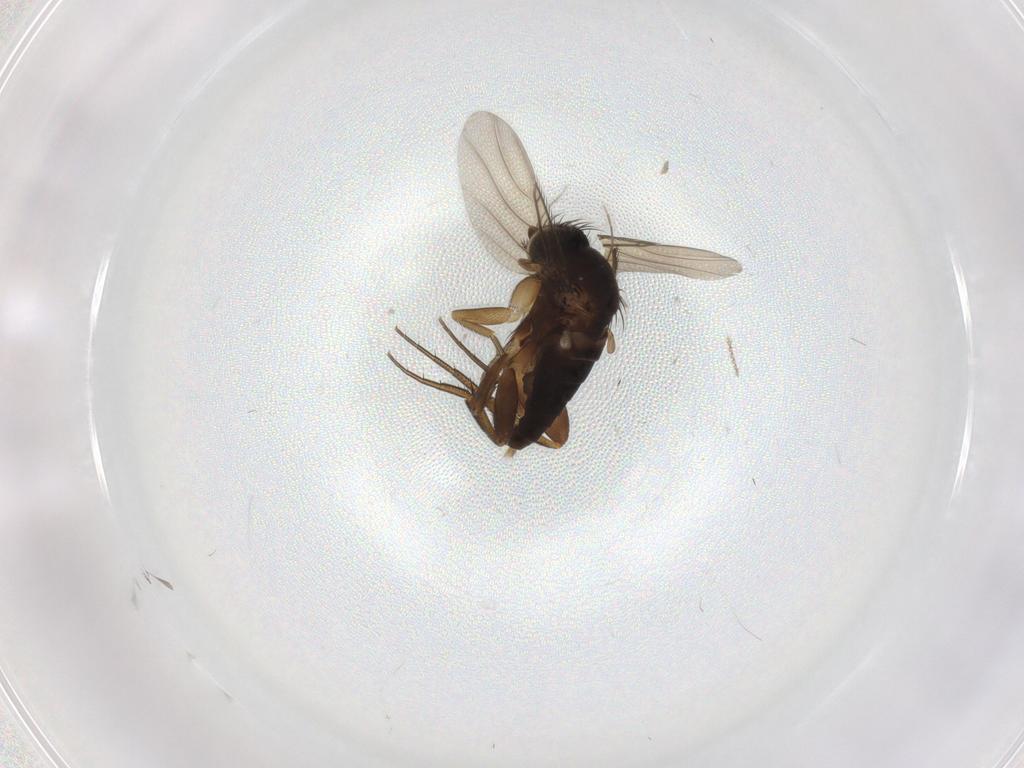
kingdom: Animalia
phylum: Arthropoda
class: Insecta
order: Diptera
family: Phoridae
